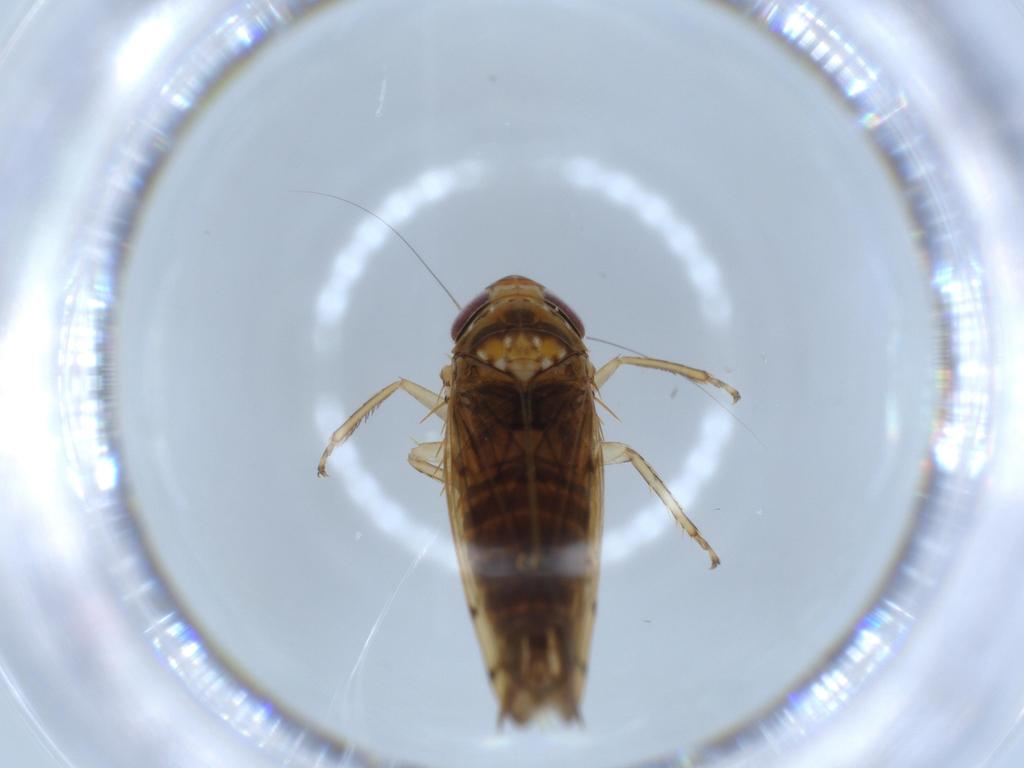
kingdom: Animalia
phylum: Arthropoda
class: Insecta
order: Hemiptera
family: Cicadellidae
